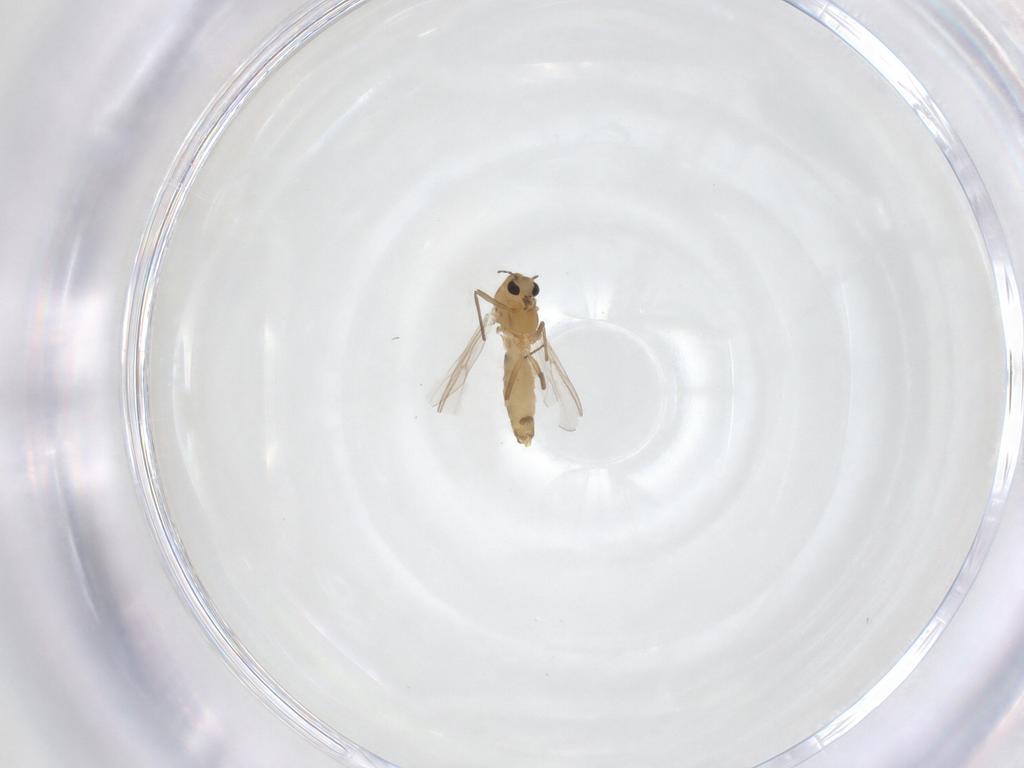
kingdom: Animalia
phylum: Arthropoda
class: Insecta
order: Diptera
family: Chironomidae
